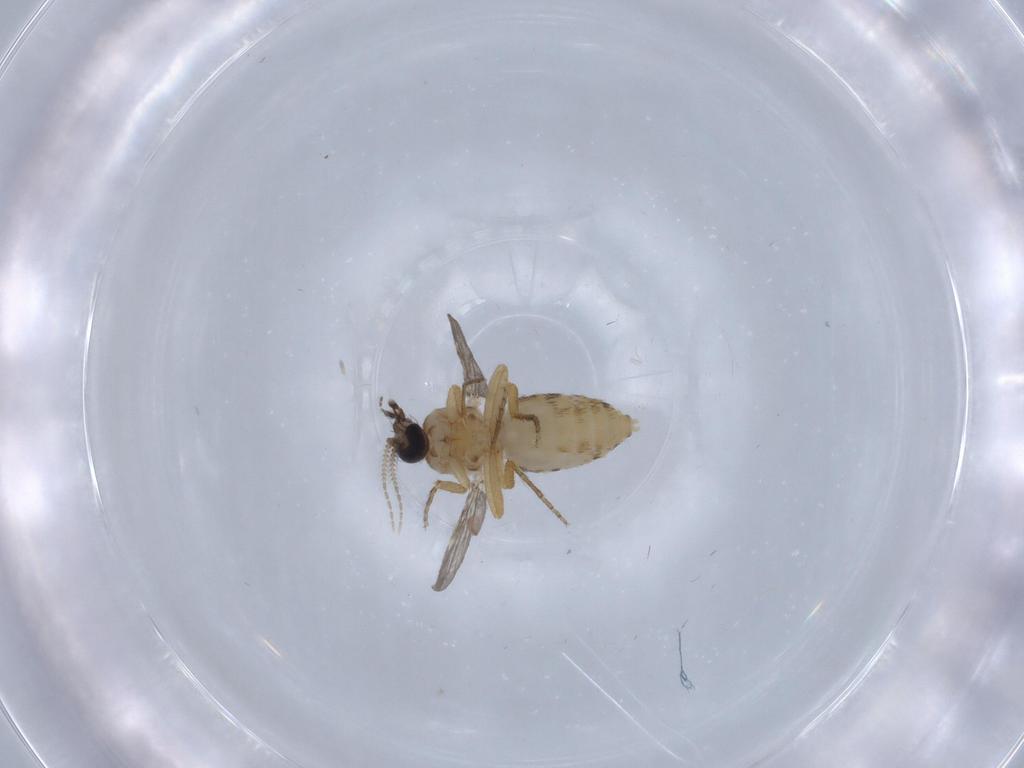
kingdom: Animalia
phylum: Arthropoda
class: Insecta
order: Diptera
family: Ceratopogonidae
